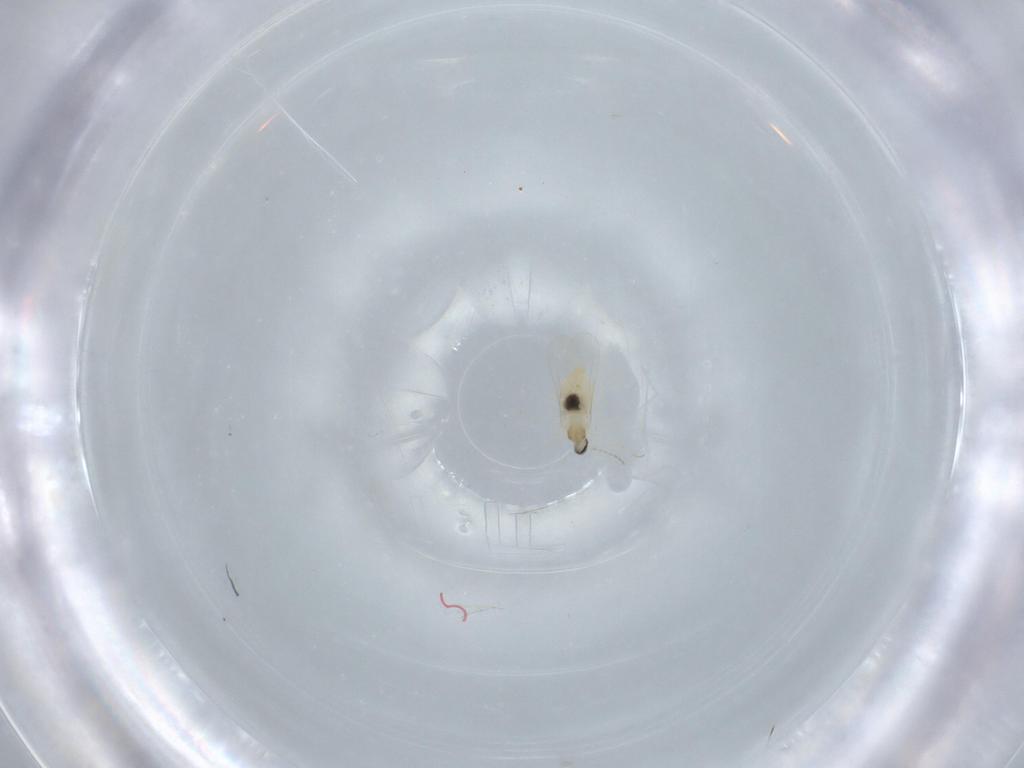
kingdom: Animalia
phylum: Arthropoda
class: Insecta
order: Diptera
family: Cecidomyiidae
